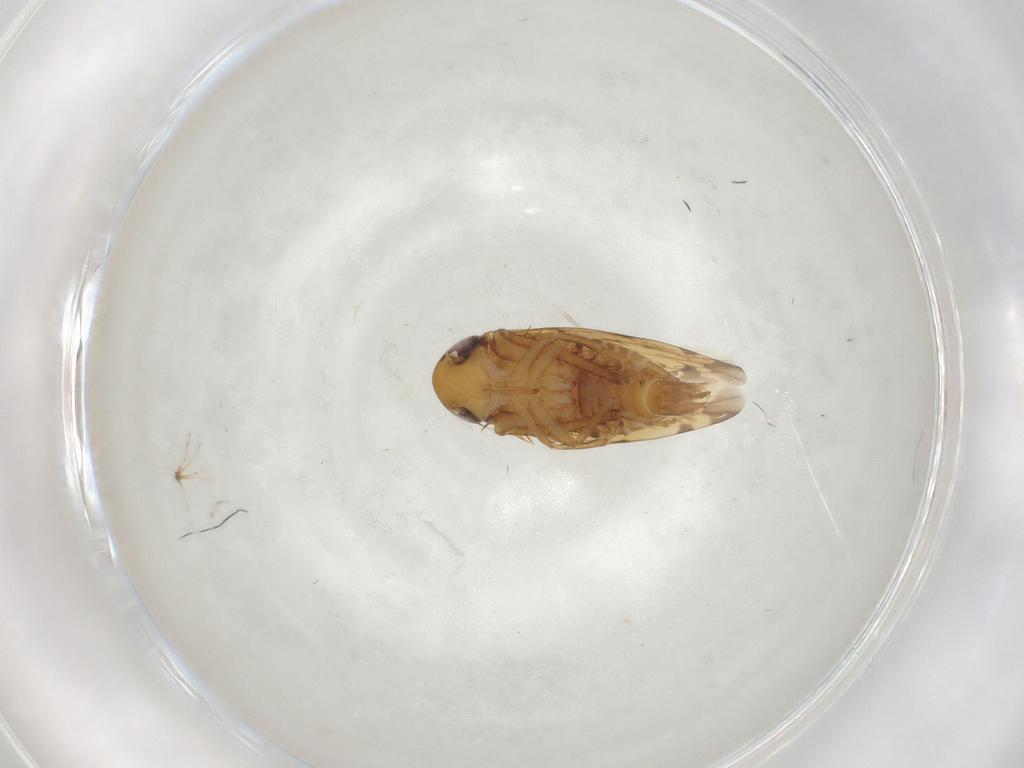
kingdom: Animalia
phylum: Arthropoda
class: Insecta
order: Hemiptera
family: Cicadellidae
